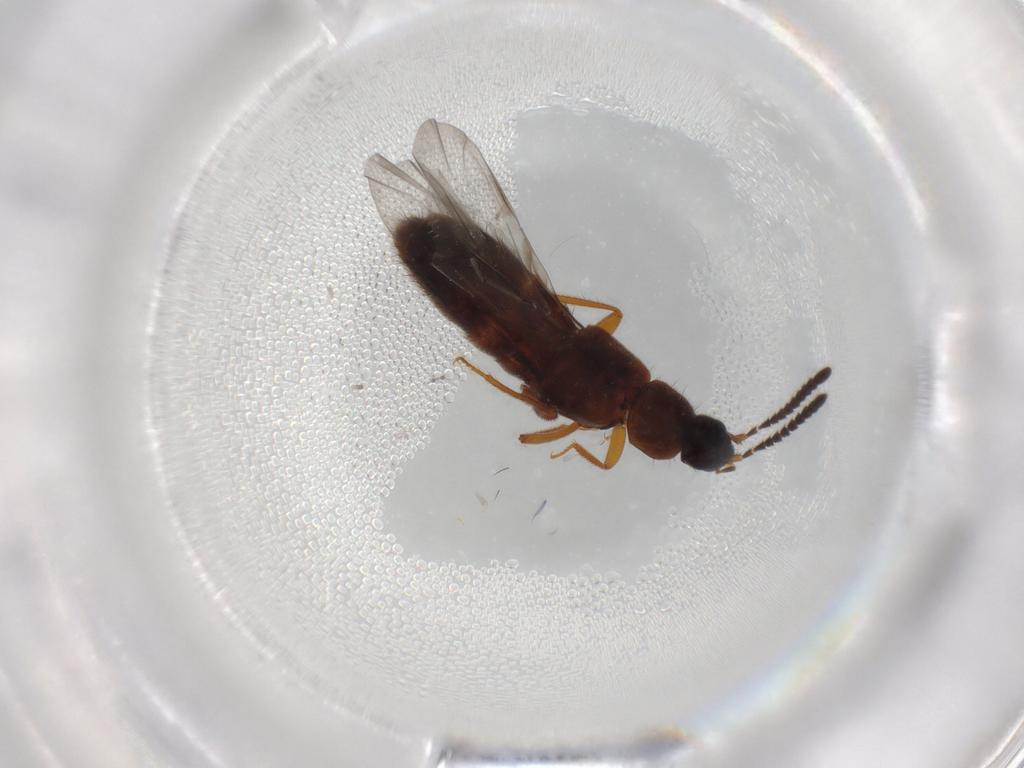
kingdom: Animalia
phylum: Arthropoda
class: Insecta
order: Coleoptera
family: Staphylinidae
